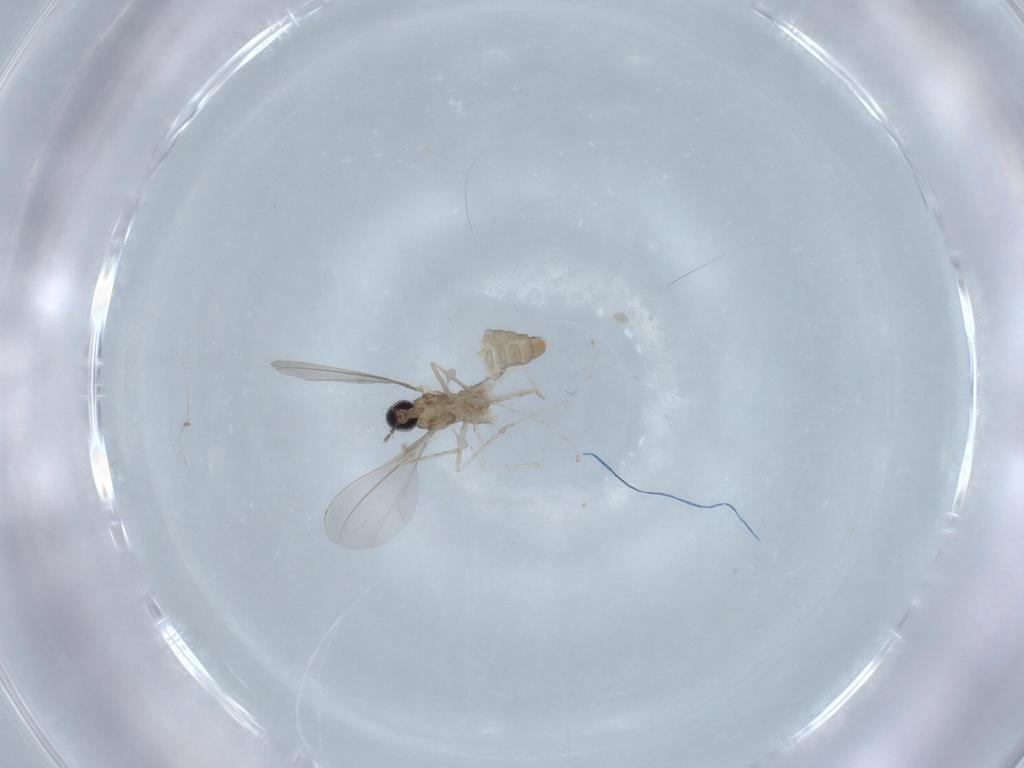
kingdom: Animalia
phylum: Arthropoda
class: Insecta
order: Diptera
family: Cecidomyiidae
